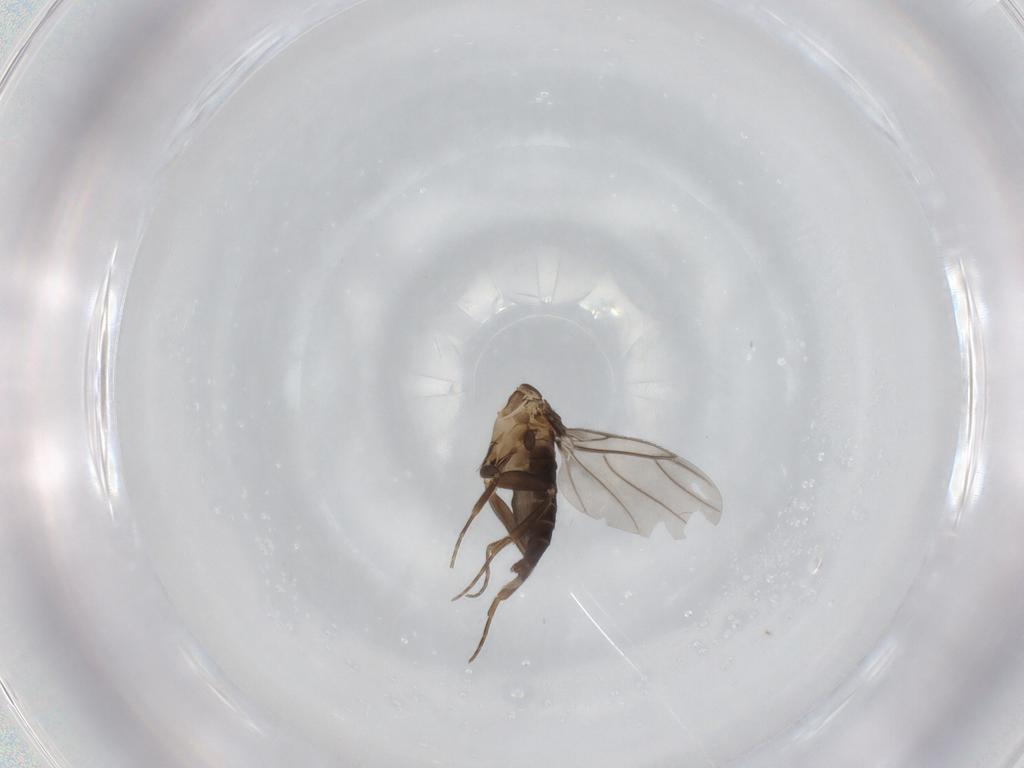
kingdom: Animalia
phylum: Arthropoda
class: Insecta
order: Diptera
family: Phoridae
